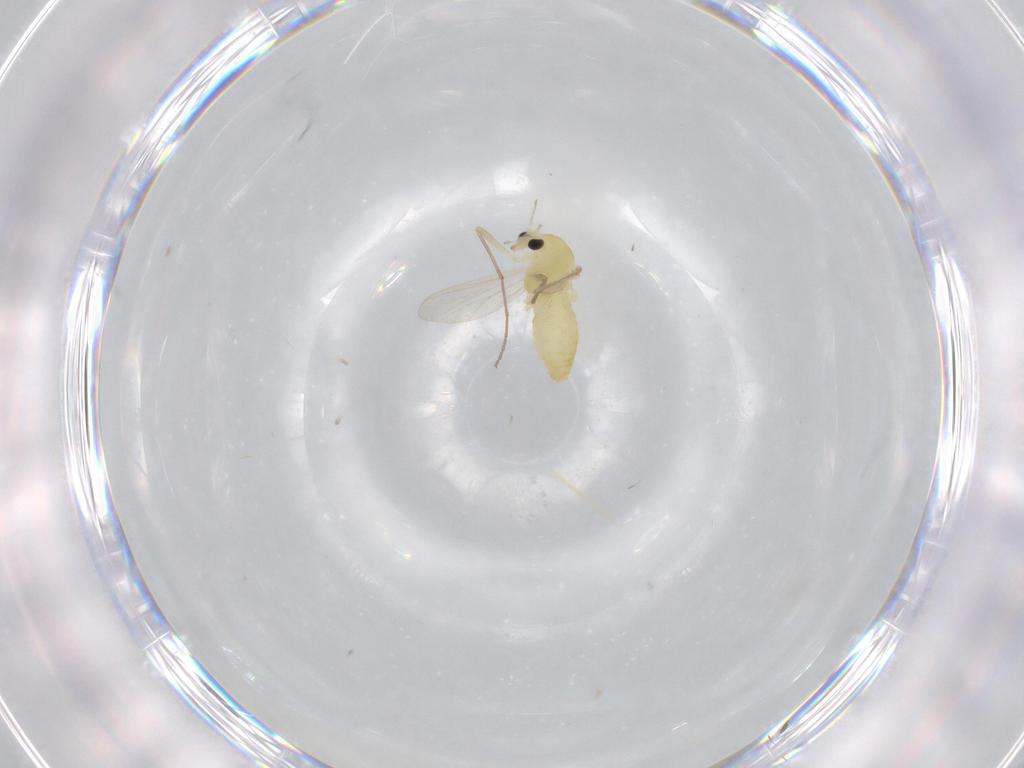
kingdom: Animalia
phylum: Arthropoda
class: Insecta
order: Diptera
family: Chironomidae
